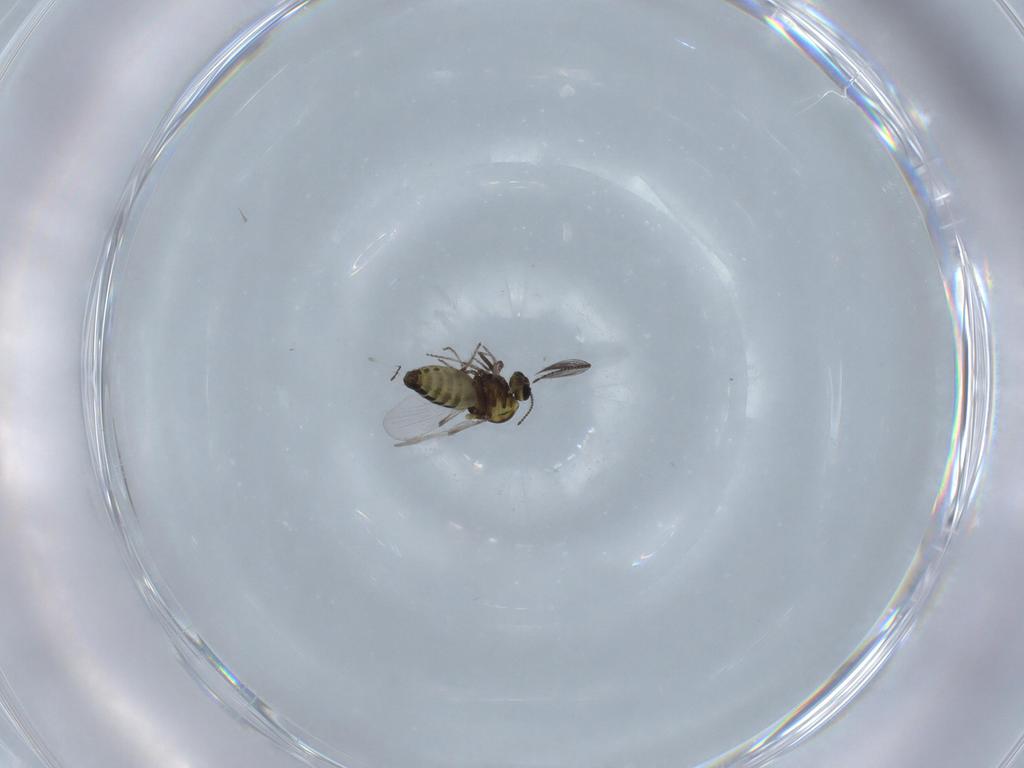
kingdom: Animalia
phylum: Arthropoda
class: Insecta
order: Diptera
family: Ceratopogonidae
